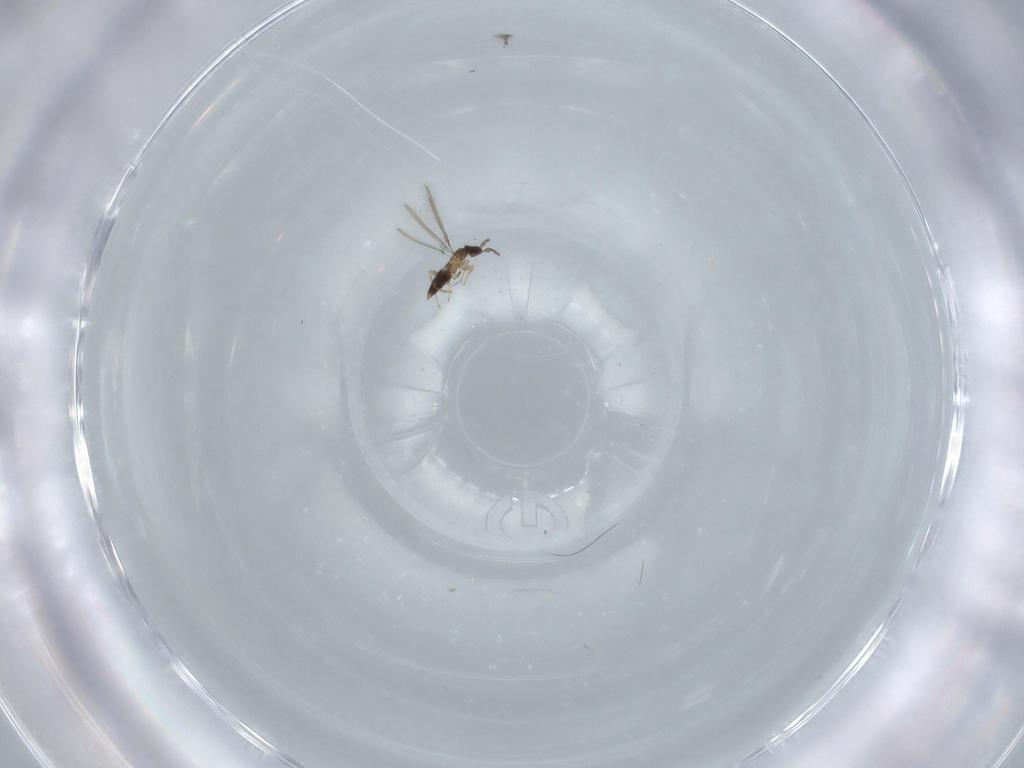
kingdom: Animalia
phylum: Arthropoda
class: Insecta
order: Hymenoptera
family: Mymaridae
